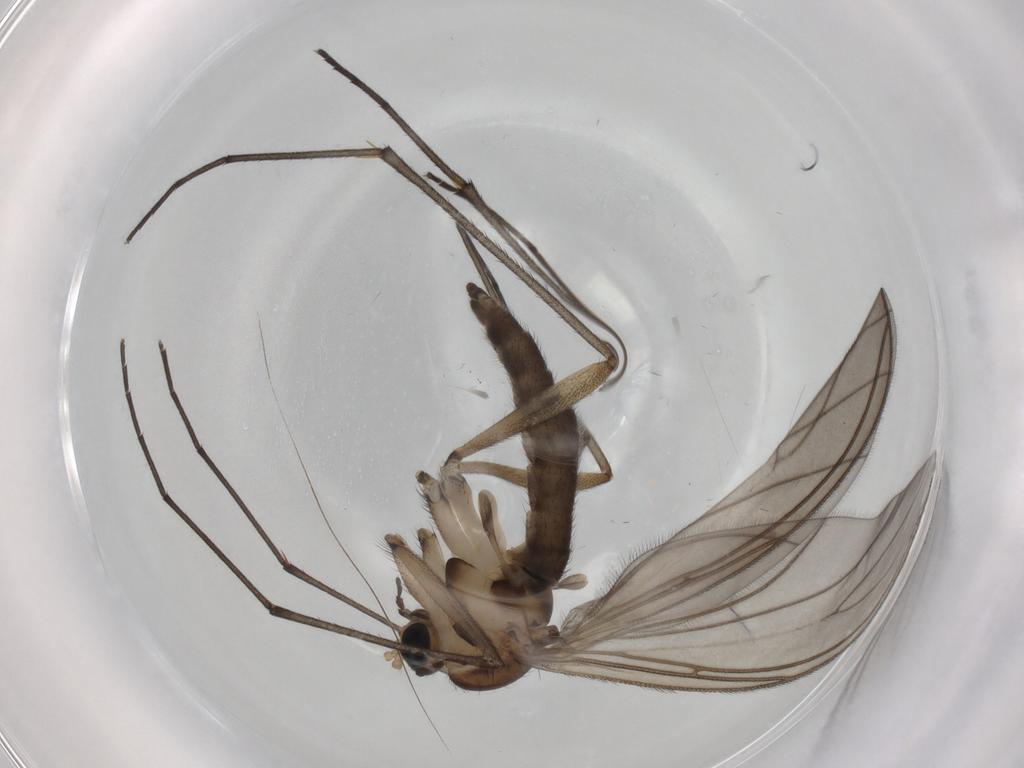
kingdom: Animalia
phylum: Arthropoda
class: Insecta
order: Diptera
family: Sciaridae
